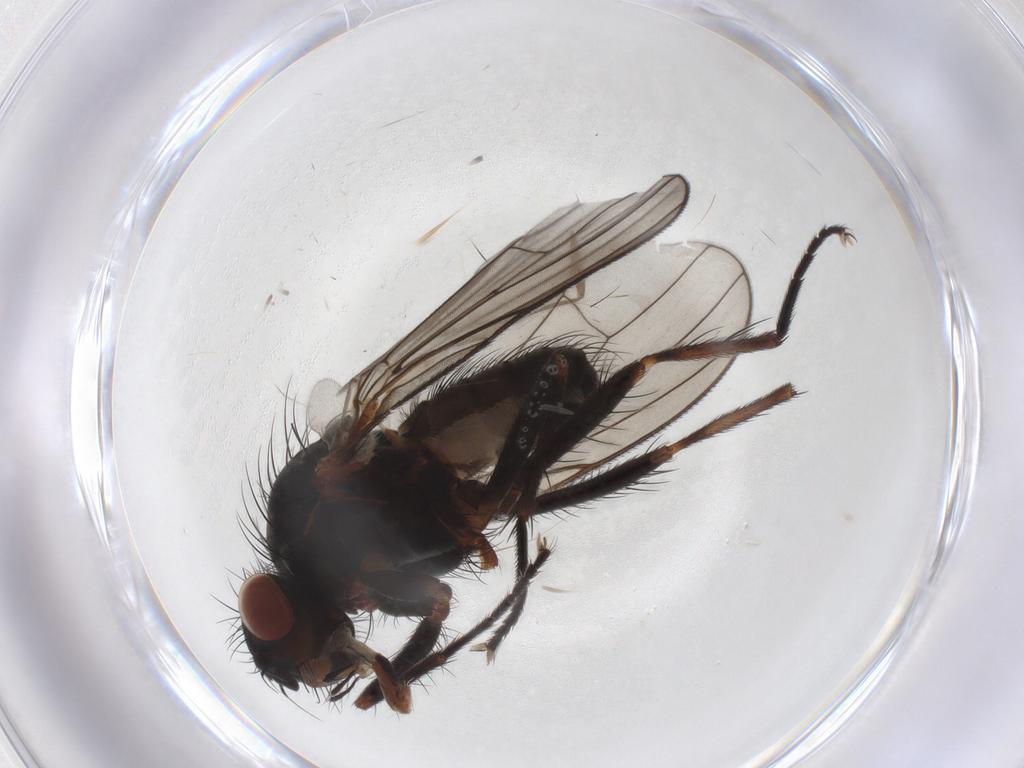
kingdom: Animalia
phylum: Arthropoda
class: Insecta
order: Diptera
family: Anthomyiidae
